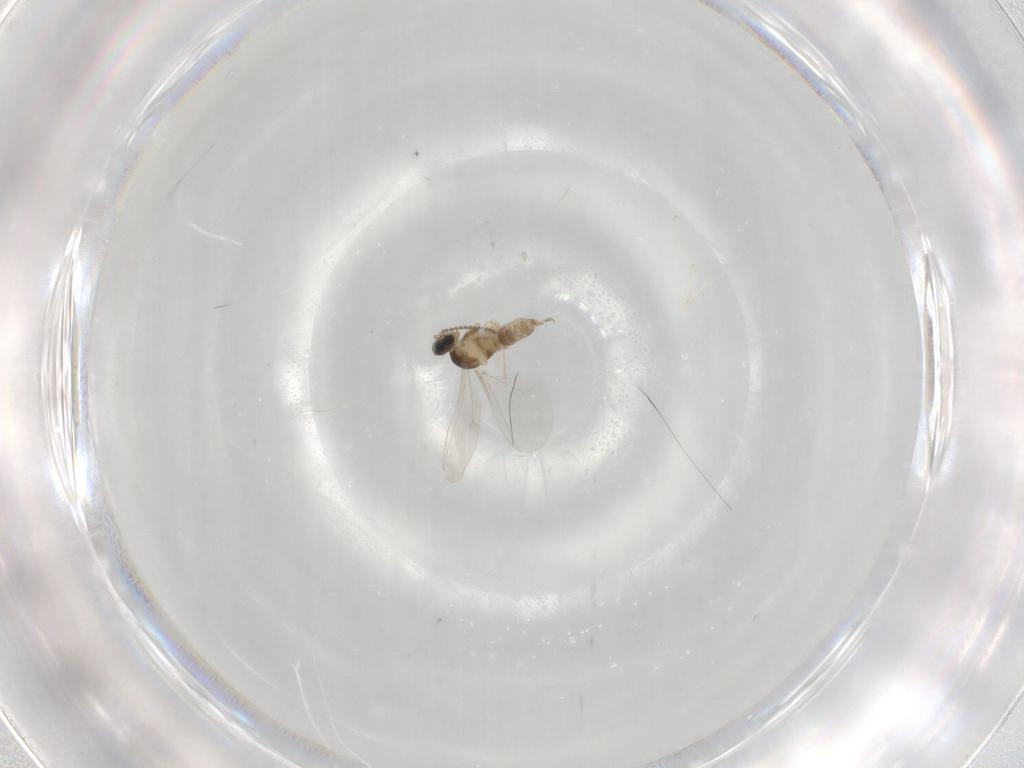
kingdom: Animalia
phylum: Arthropoda
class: Insecta
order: Diptera
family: Cecidomyiidae
